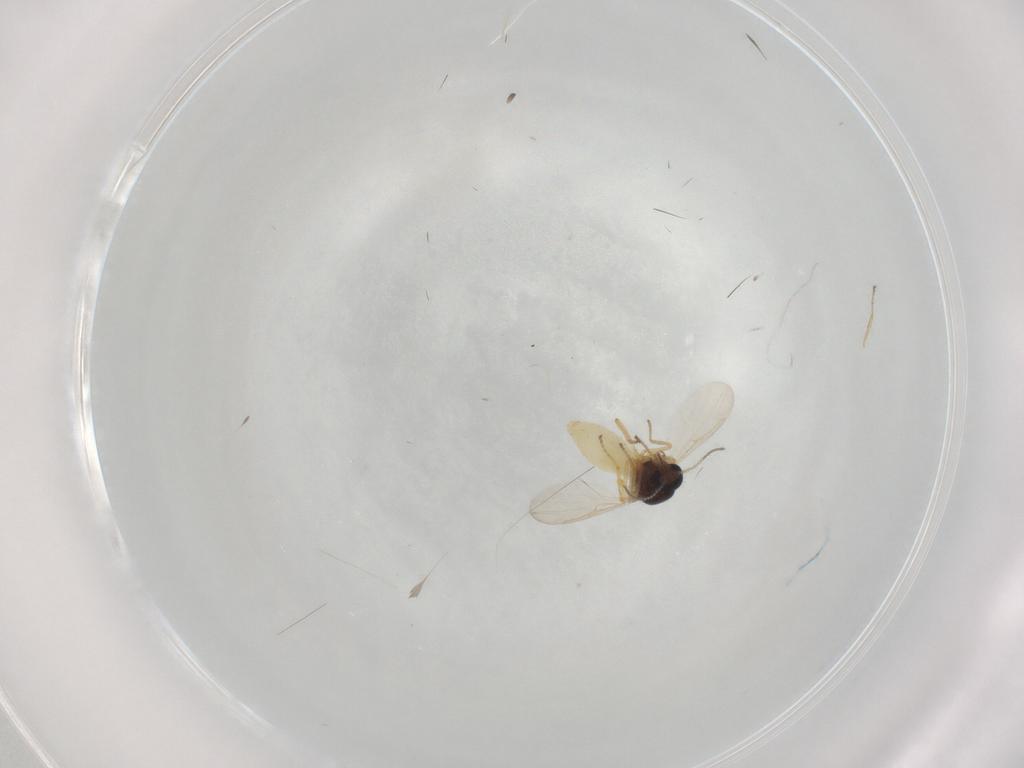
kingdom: Animalia
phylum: Arthropoda
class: Insecta
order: Diptera
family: Ceratopogonidae
